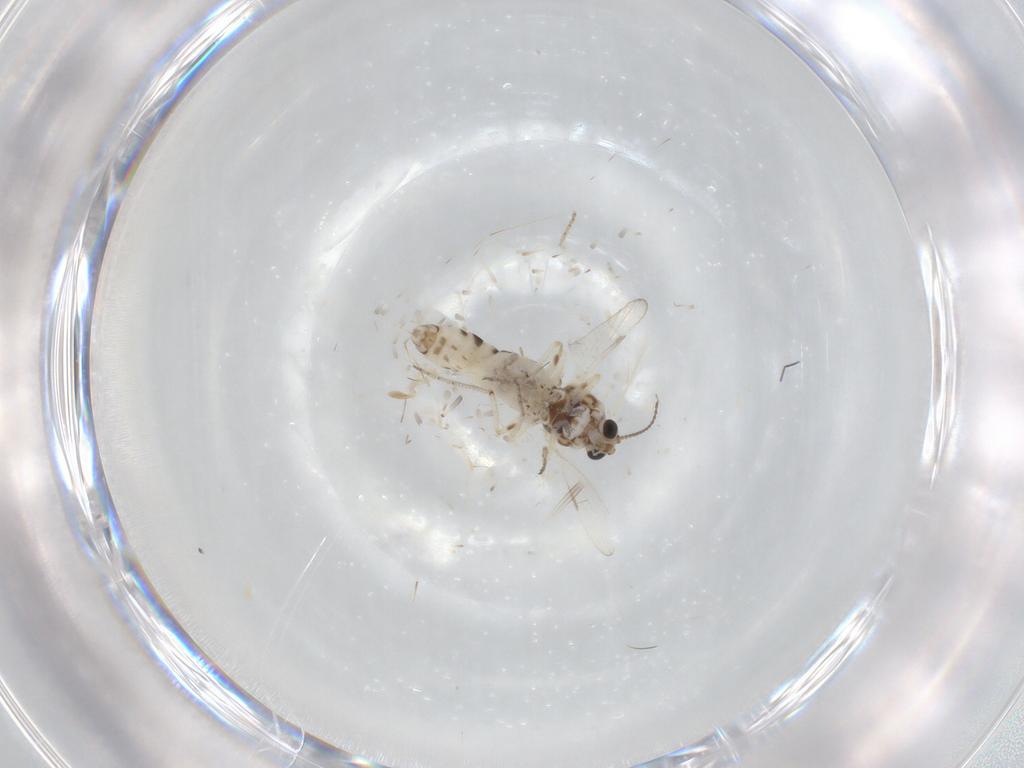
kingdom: Animalia
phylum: Arthropoda
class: Insecta
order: Diptera
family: Ceratopogonidae
